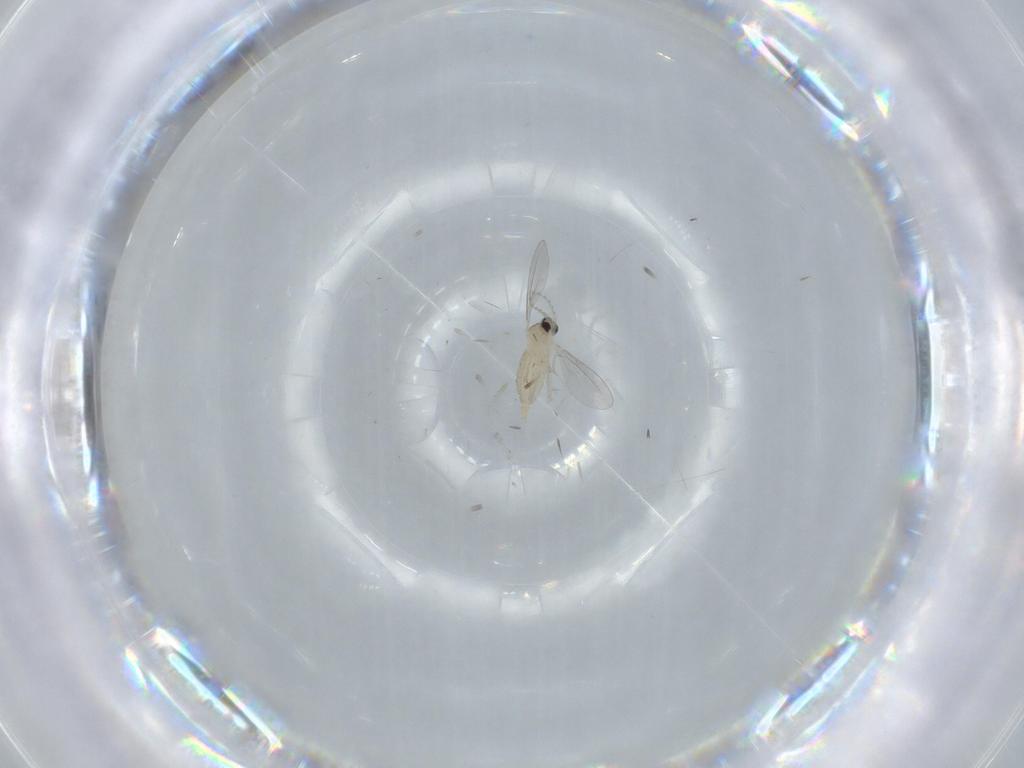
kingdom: Animalia
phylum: Arthropoda
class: Insecta
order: Diptera
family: Cecidomyiidae
